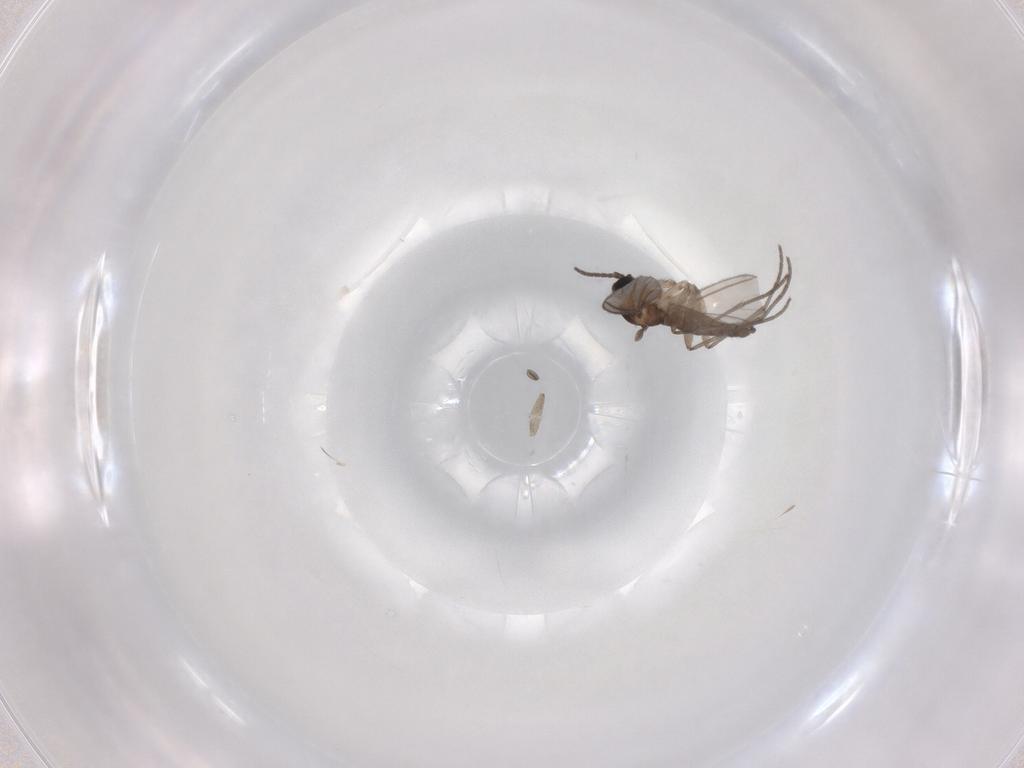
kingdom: Animalia
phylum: Arthropoda
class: Insecta
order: Diptera
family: Sciaridae
